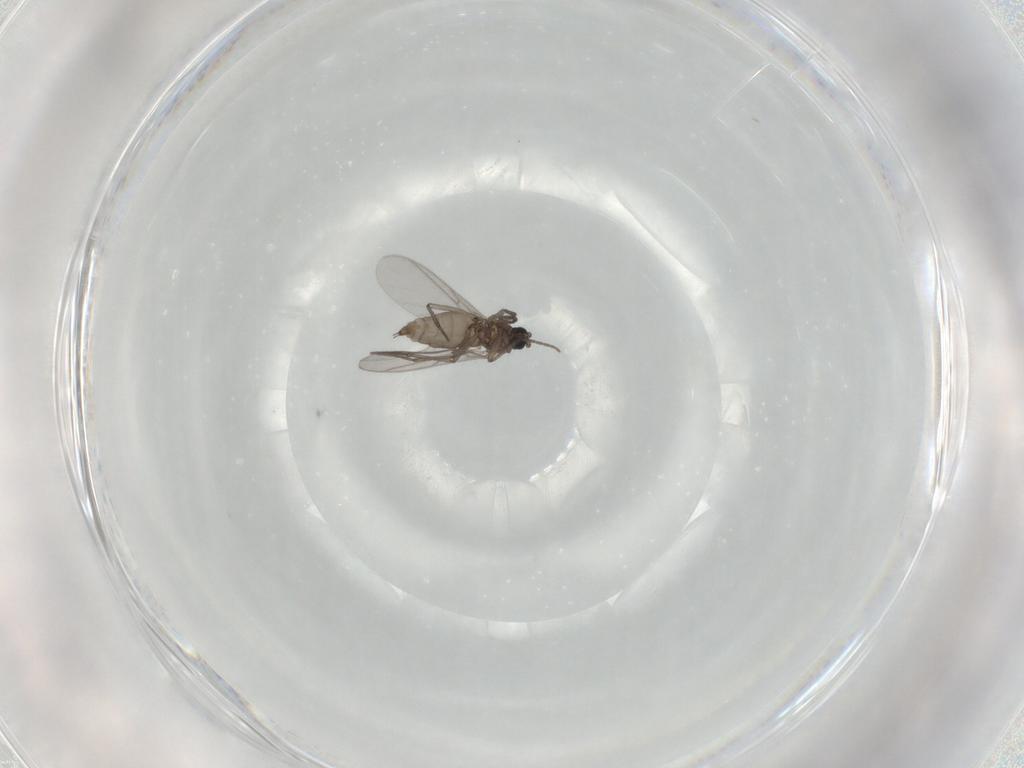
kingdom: Animalia
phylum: Arthropoda
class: Insecta
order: Diptera
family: Sciaridae
